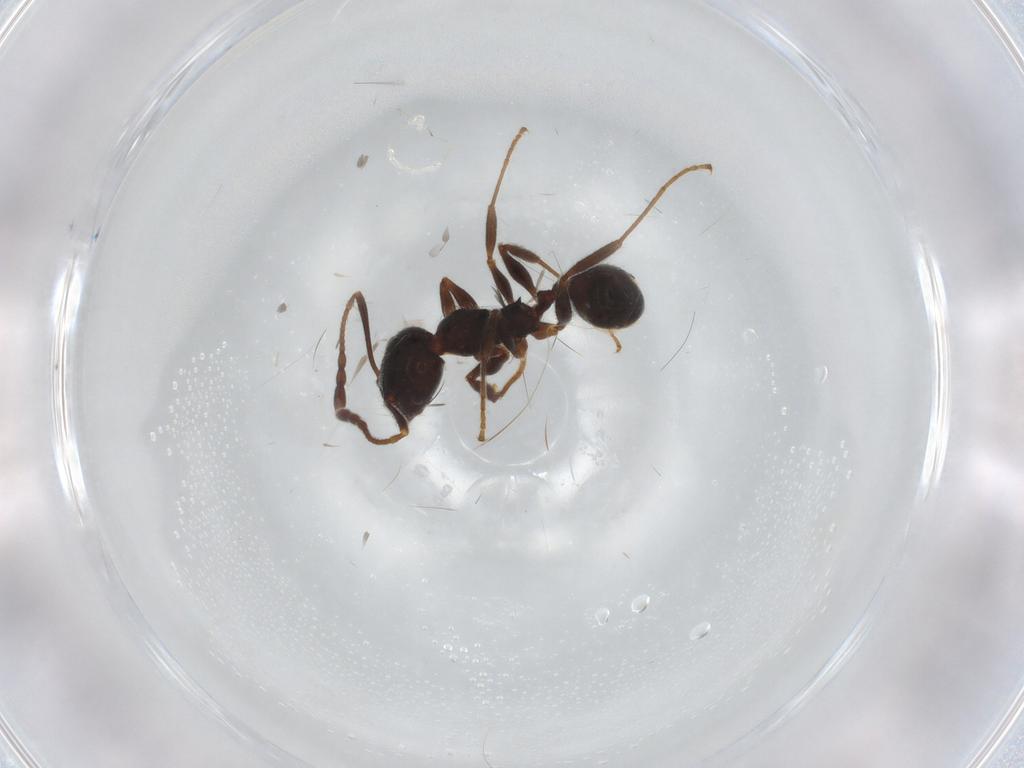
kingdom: Animalia
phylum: Arthropoda
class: Insecta
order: Hymenoptera
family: Formicidae
